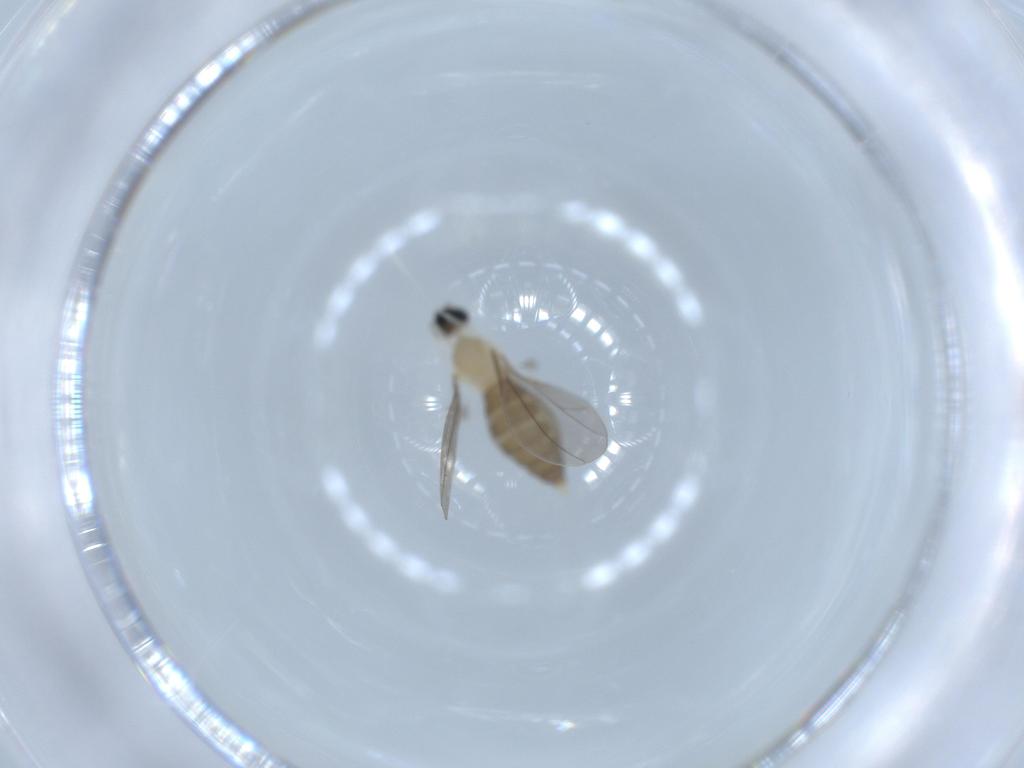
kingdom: Animalia
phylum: Arthropoda
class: Insecta
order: Diptera
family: Cecidomyiidae
